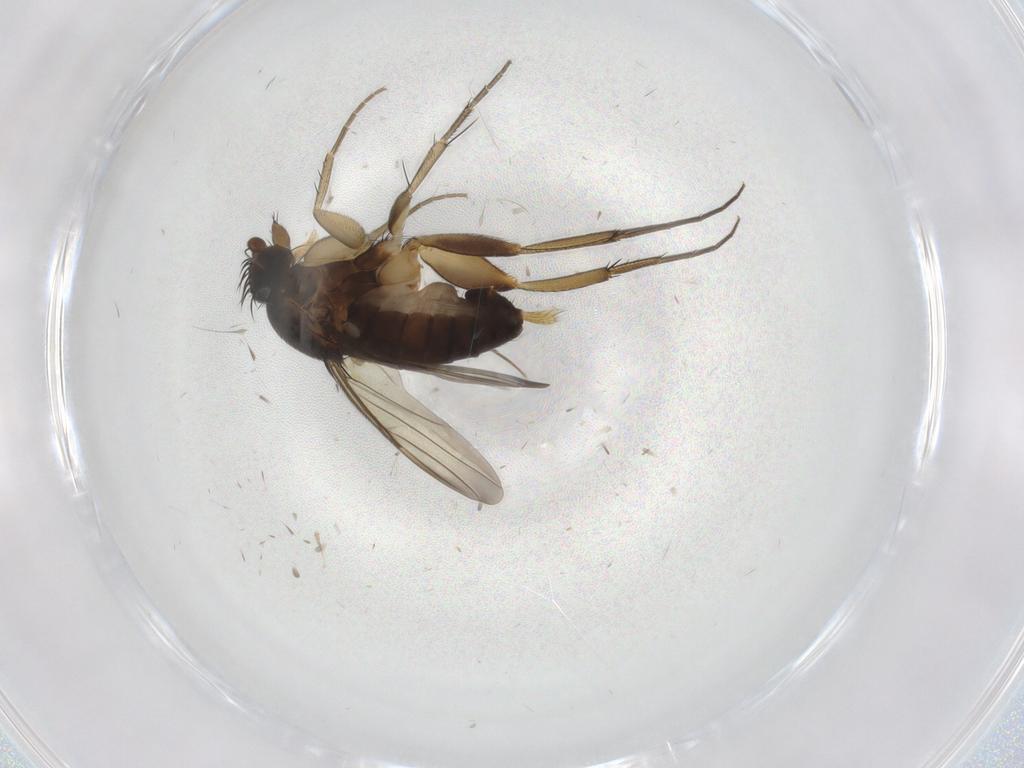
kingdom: Animalia
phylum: Arthropoda
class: Insecta
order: Diptera
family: Phoridae
